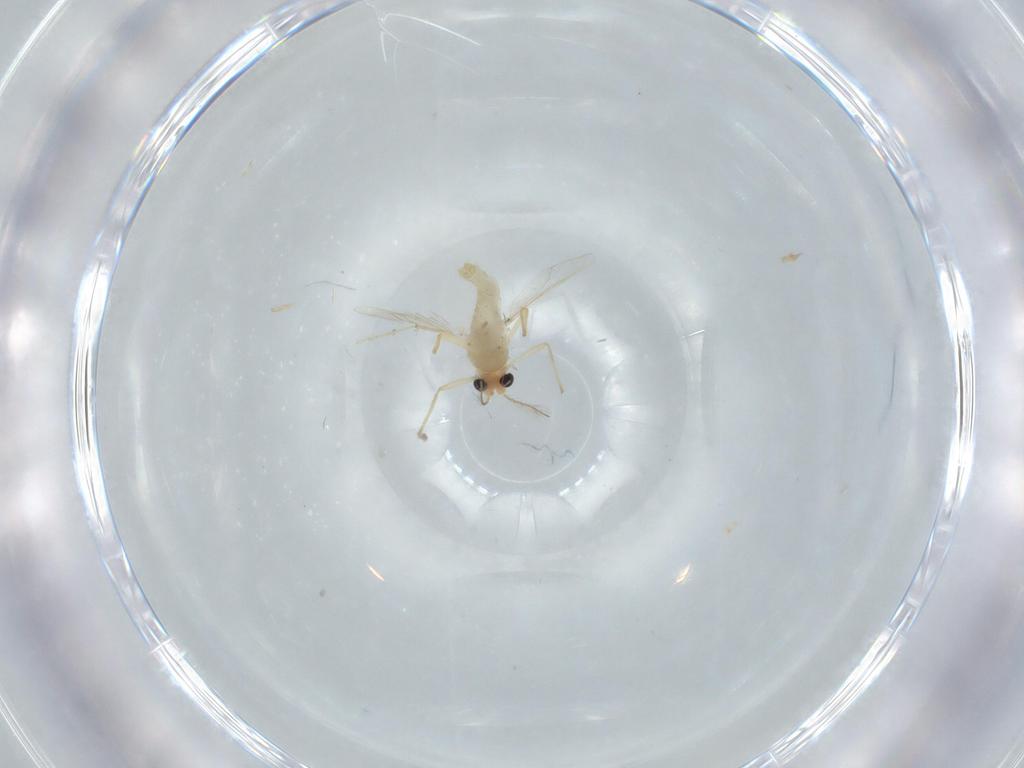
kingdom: Animalia
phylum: Arthropoda
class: Insecta
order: Diptera
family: Chironomidae
